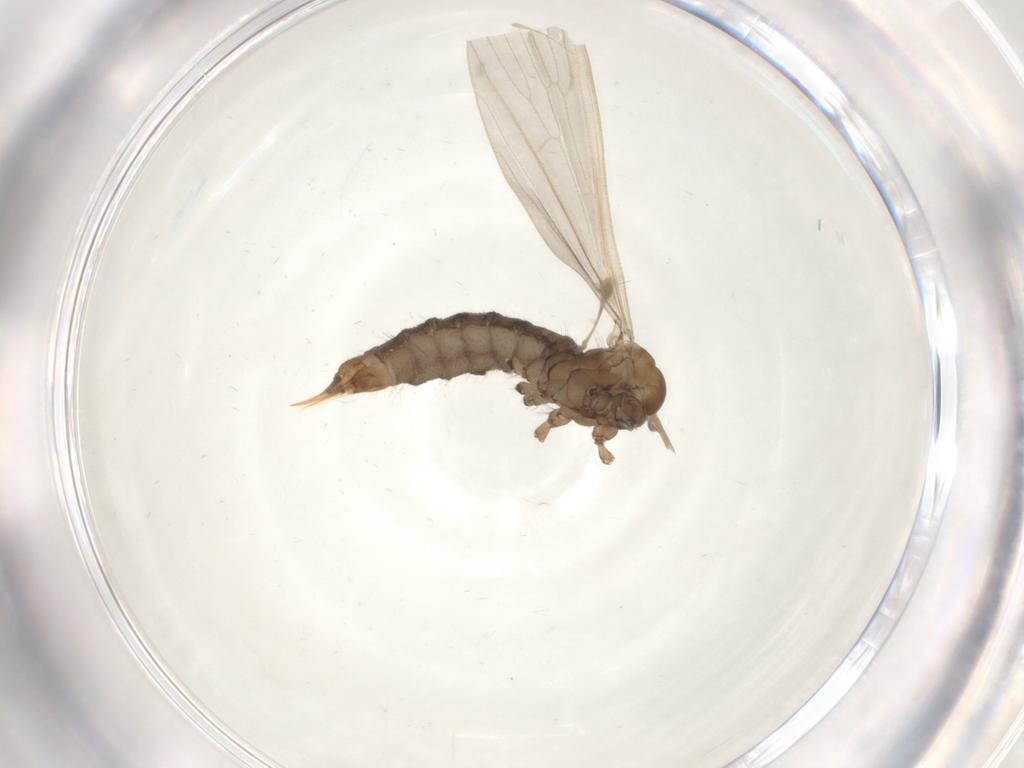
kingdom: Animalia
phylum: Arthropoda
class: Insecta
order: Diptera
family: Limoniidae
